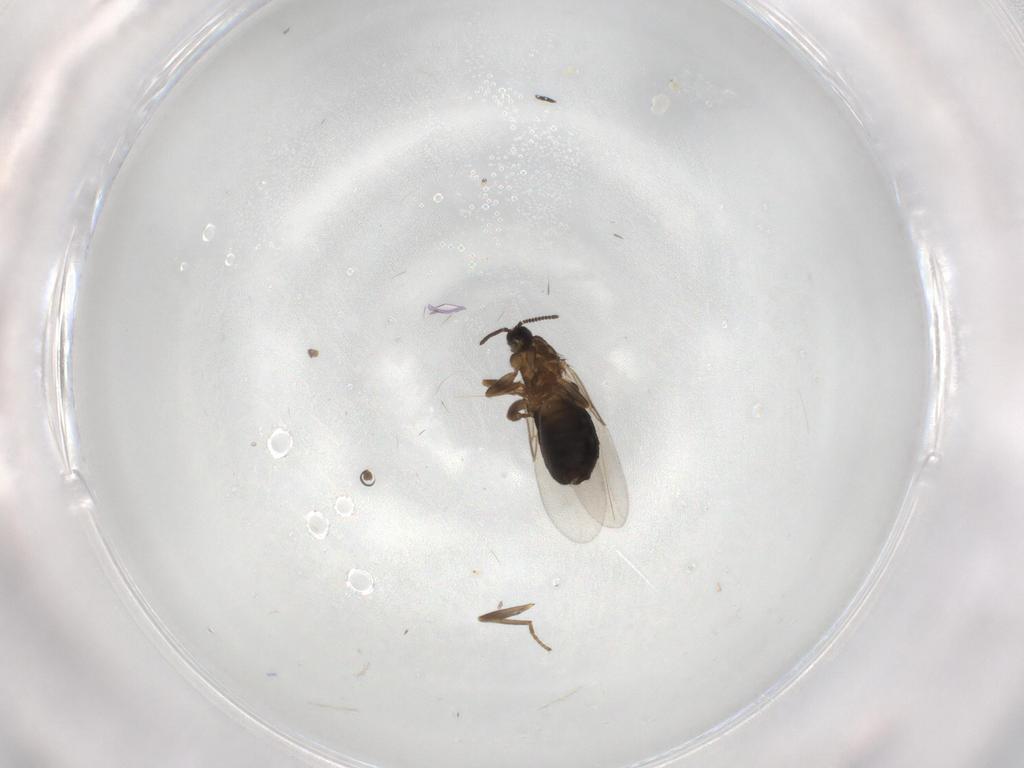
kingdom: Animalia
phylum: Arthropoda
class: Insecta
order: Diptera
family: Scatopsidae
